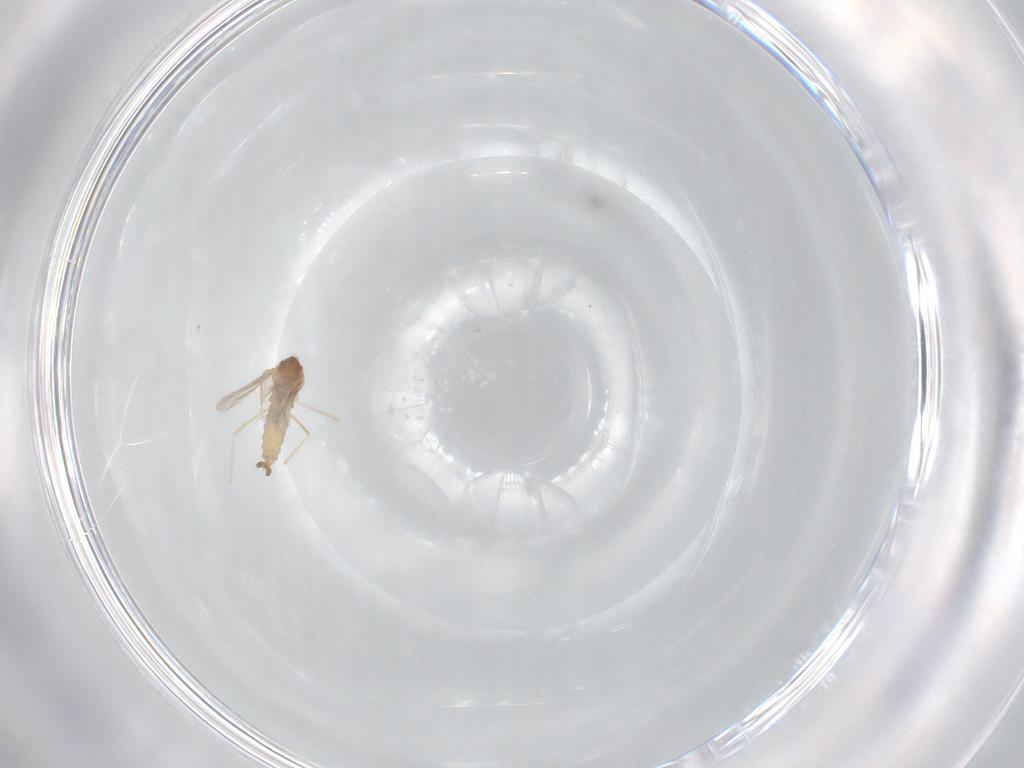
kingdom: Animalia
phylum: Arthropoda
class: Insecta
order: Diptera
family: Cecidomyiidae
